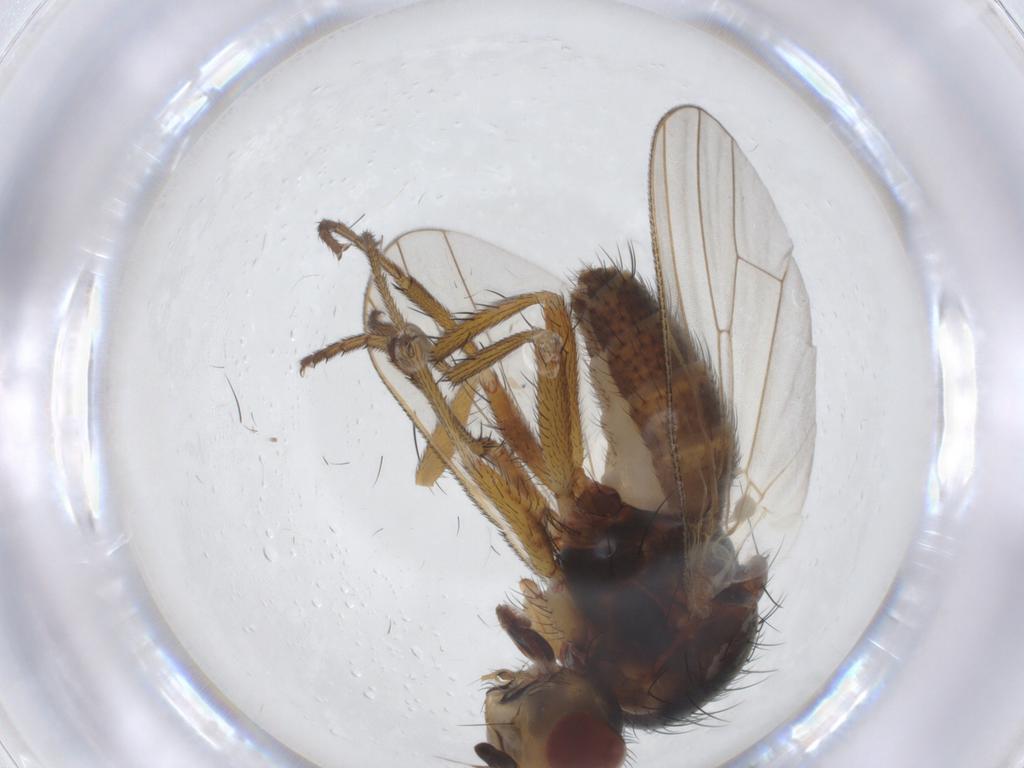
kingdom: Animalia
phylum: Arthropoda
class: Insecta
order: Diptera
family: Anthomyiidae
